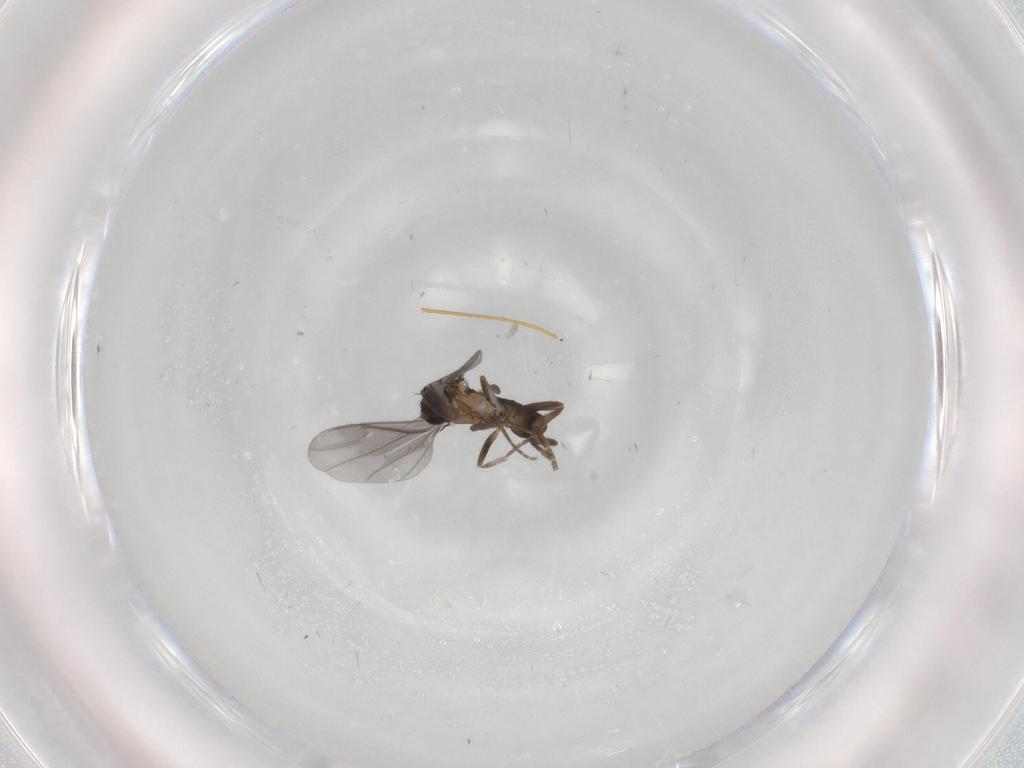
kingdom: Animalia
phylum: Arthropoda
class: Insecta
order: Diptera
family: Phoridae
